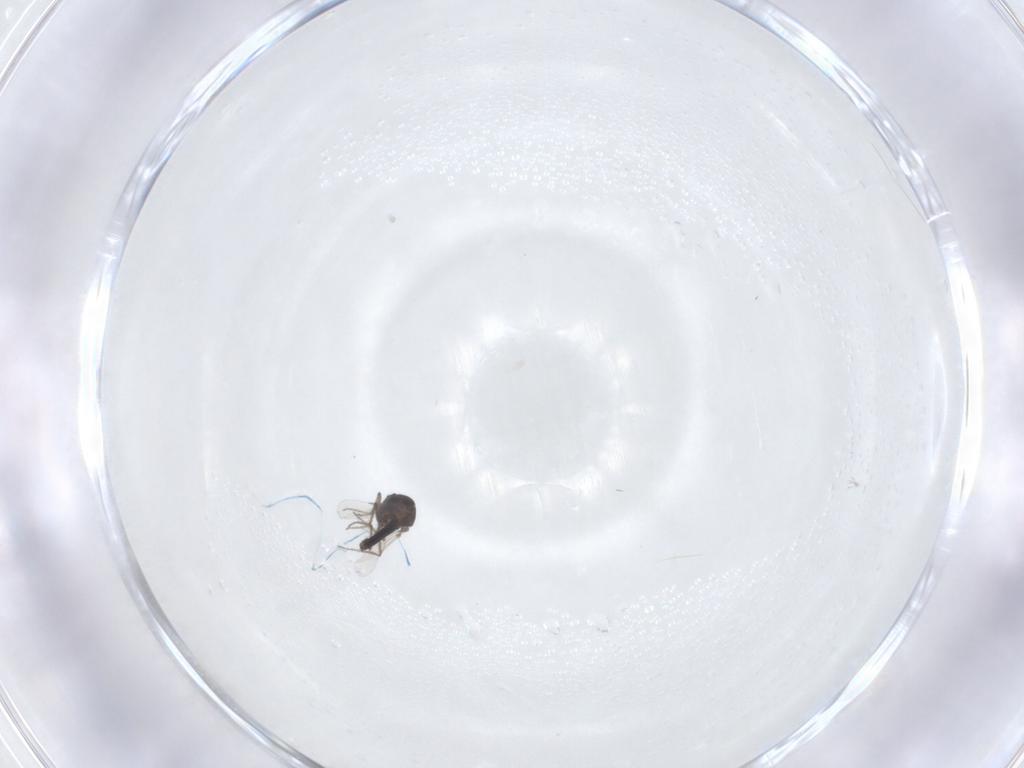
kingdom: Animalia
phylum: Arthropoda
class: Insecta
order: Diptera
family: Ceratopogonidae
